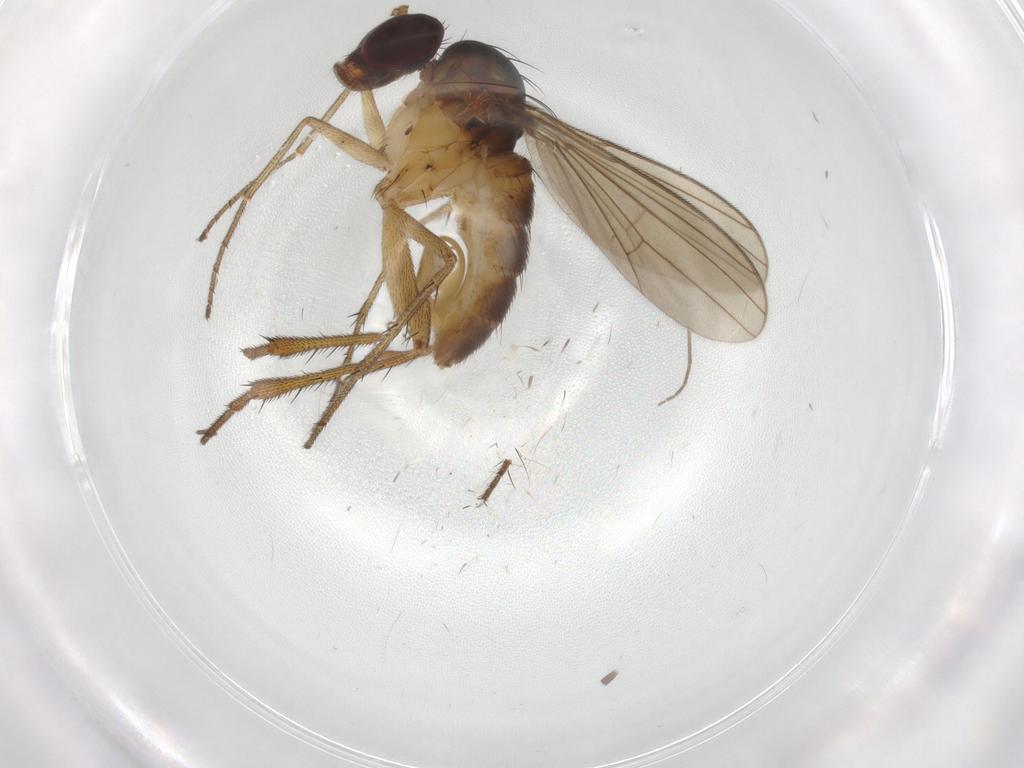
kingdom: Animalia
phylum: Arthropoda
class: Insecta
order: Diptera
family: Dolichopodidae
